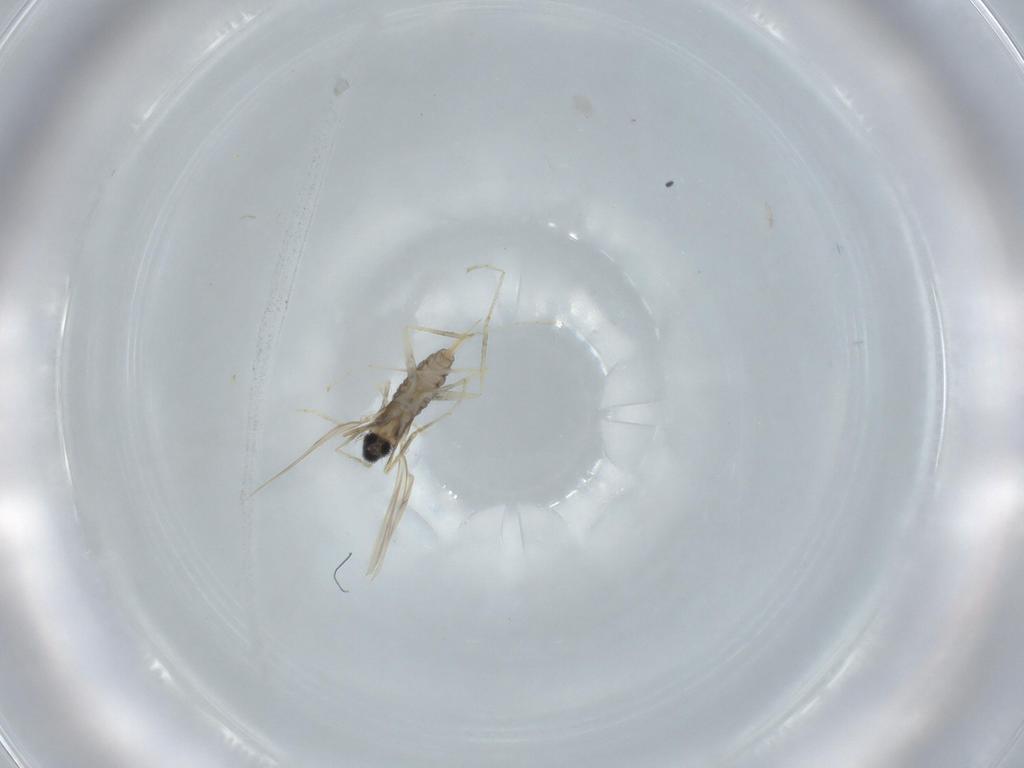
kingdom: Animalia
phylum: Arthropoda
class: Insecta
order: Diptera
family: Cecidomyiidae
